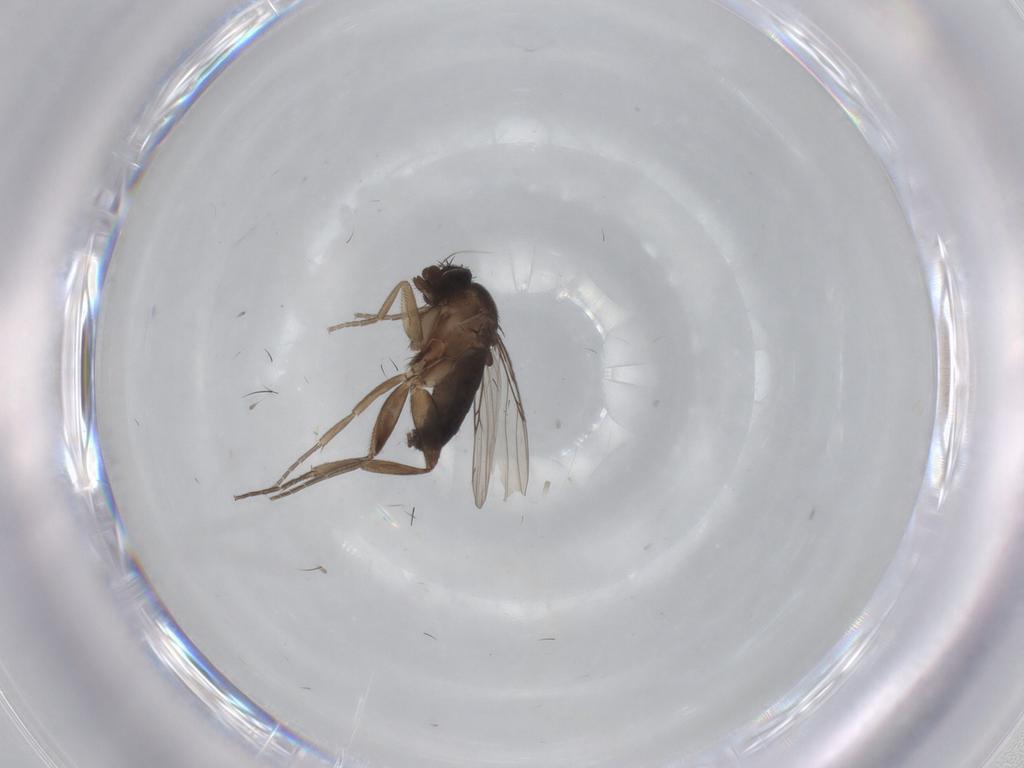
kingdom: Animalia
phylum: Arthropoda
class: Insecta
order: Diptera
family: Phoridae
